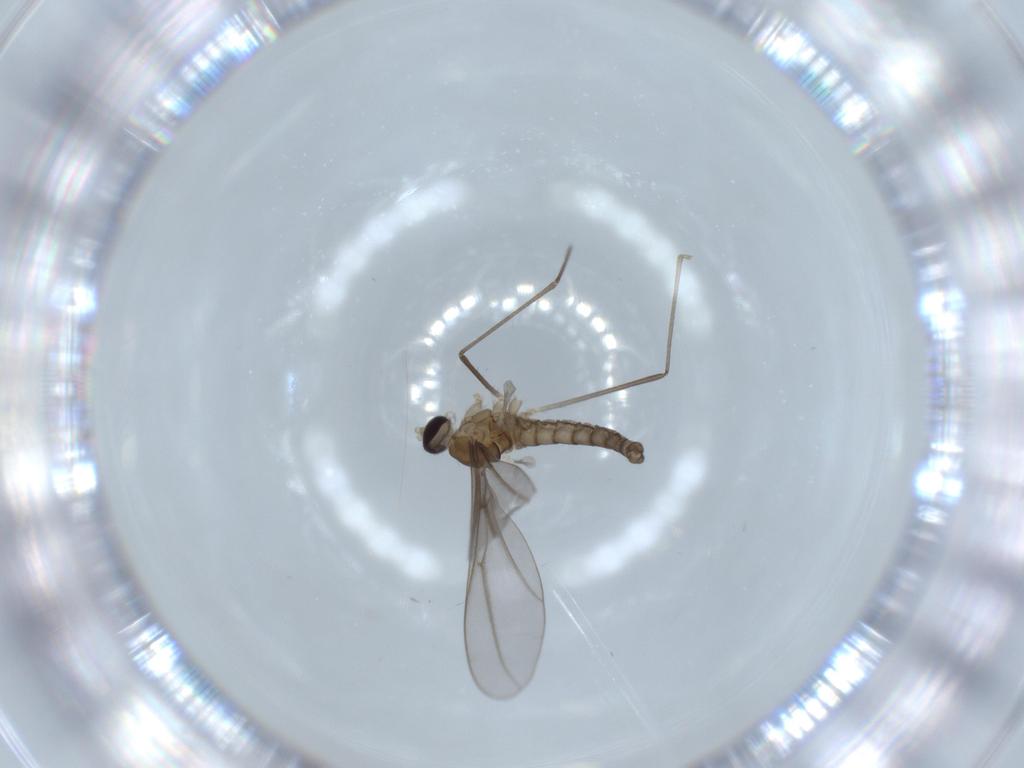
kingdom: Animalia
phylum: Arthropoda
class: Insecta
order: Diptera
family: Cecidomyiidae
